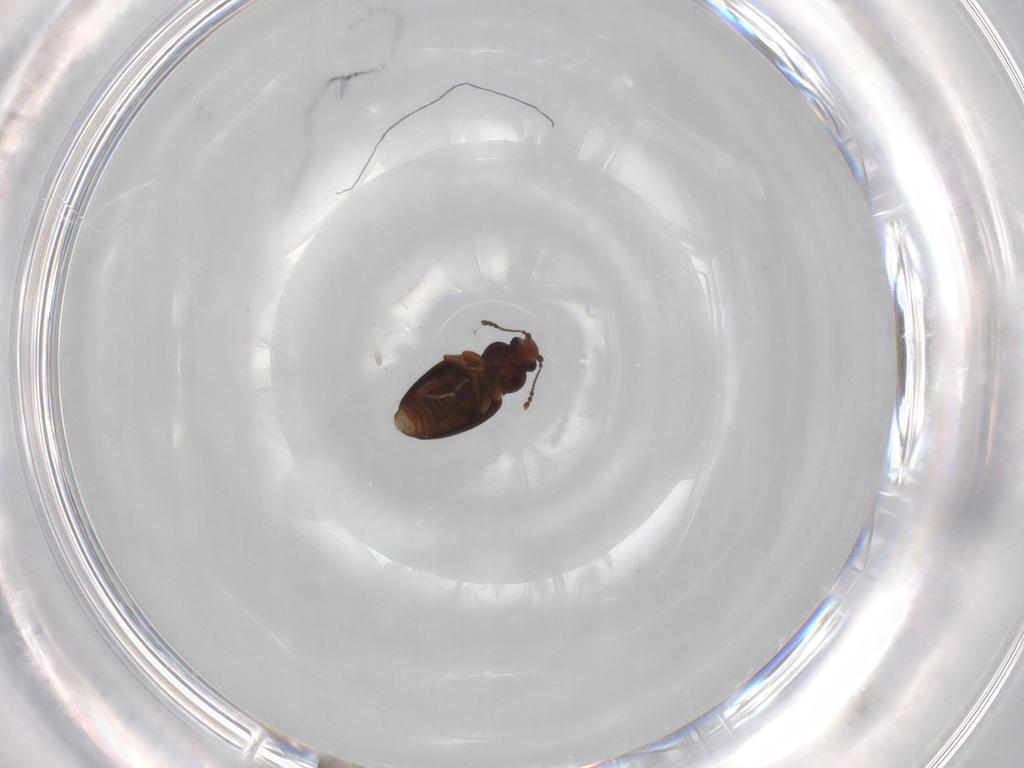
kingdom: Animalia
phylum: Arthropoda
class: Insecta
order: Coleoptera
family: Latridiidae
